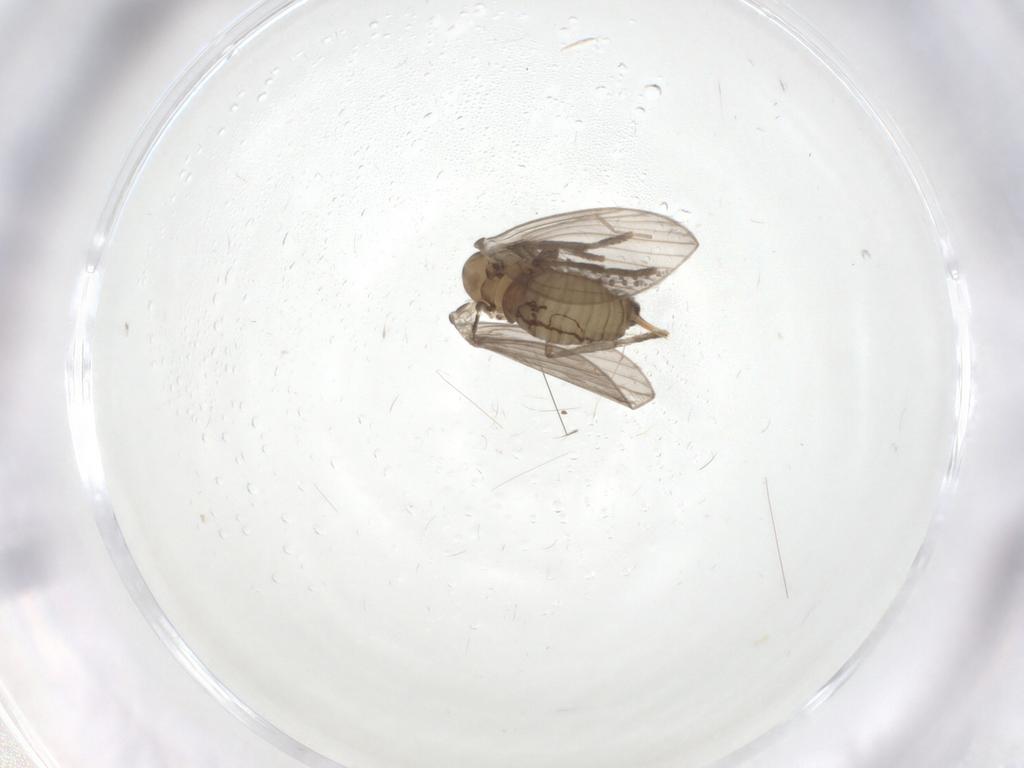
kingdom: Animalia
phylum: Arthropoda
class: Insecta
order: Diptera
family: Psychodidae
